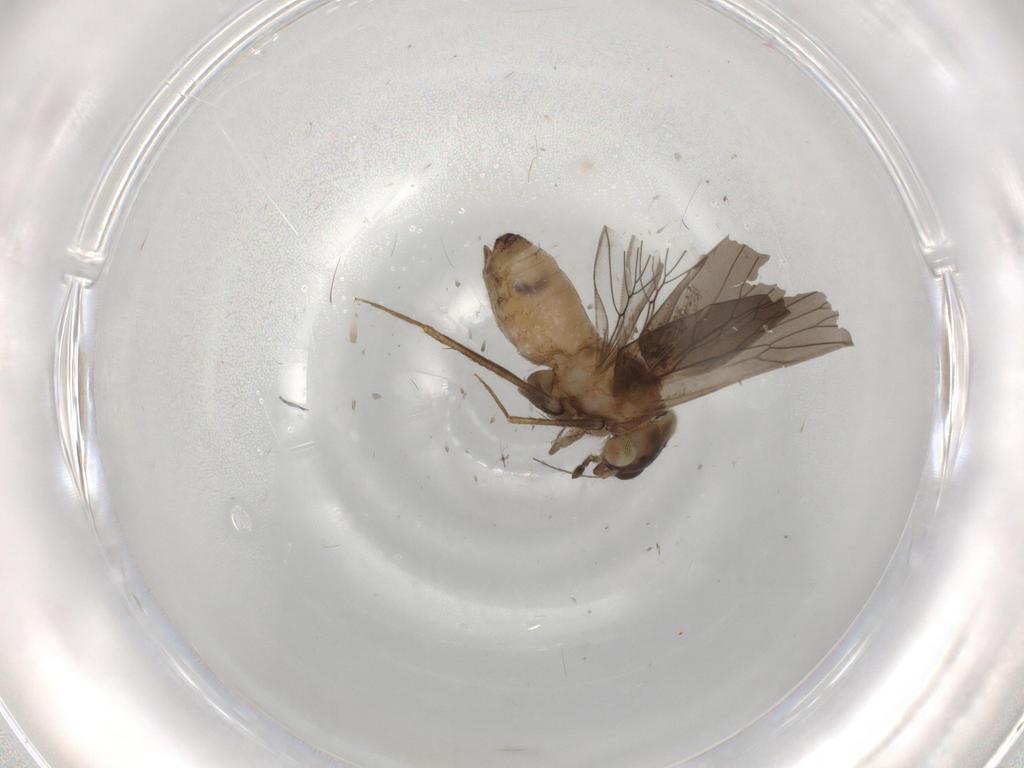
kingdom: Animalia
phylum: Arthropoda
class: Insecta
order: Psocodea
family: Lepidopsocidae
